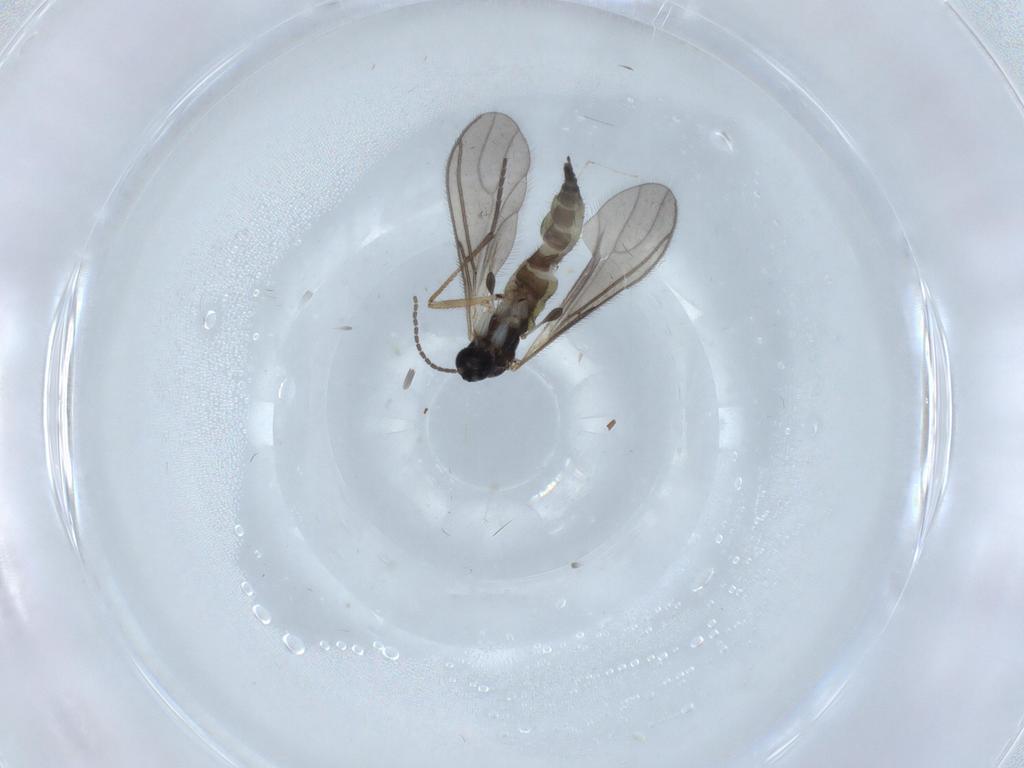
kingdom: Animalia
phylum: Arthropoda
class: Insecta
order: Diptera
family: Sciaridae
